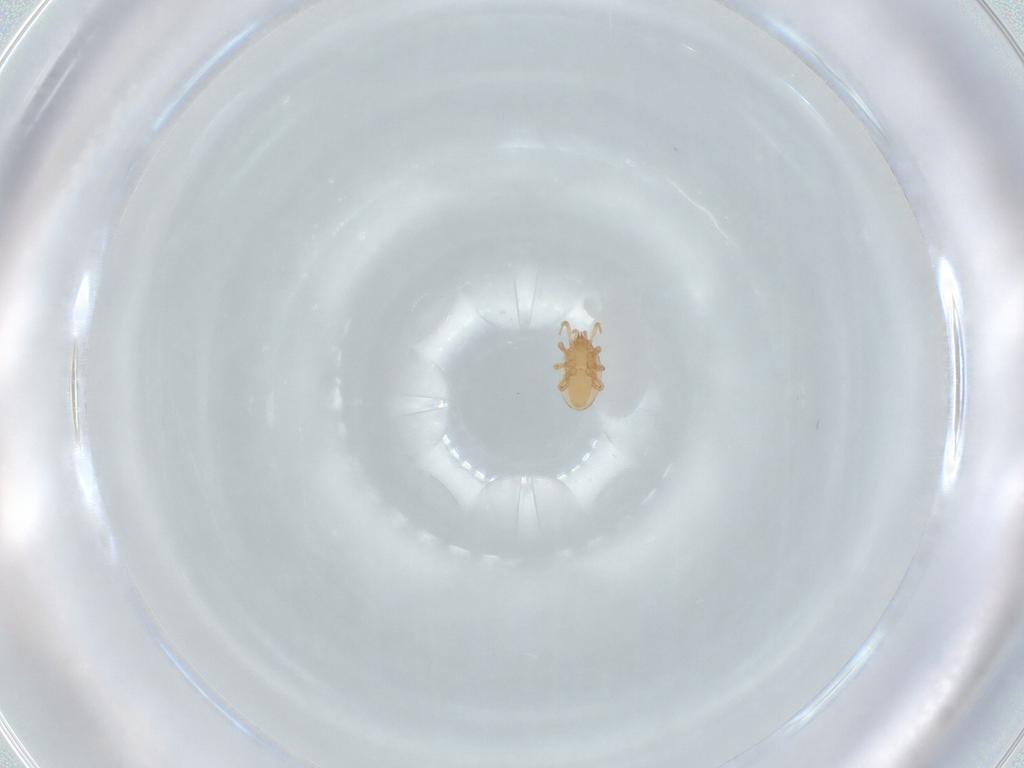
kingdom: Animalia
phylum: Arthropoda
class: Arachnida
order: Mesostigmata
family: Ologamasidae
